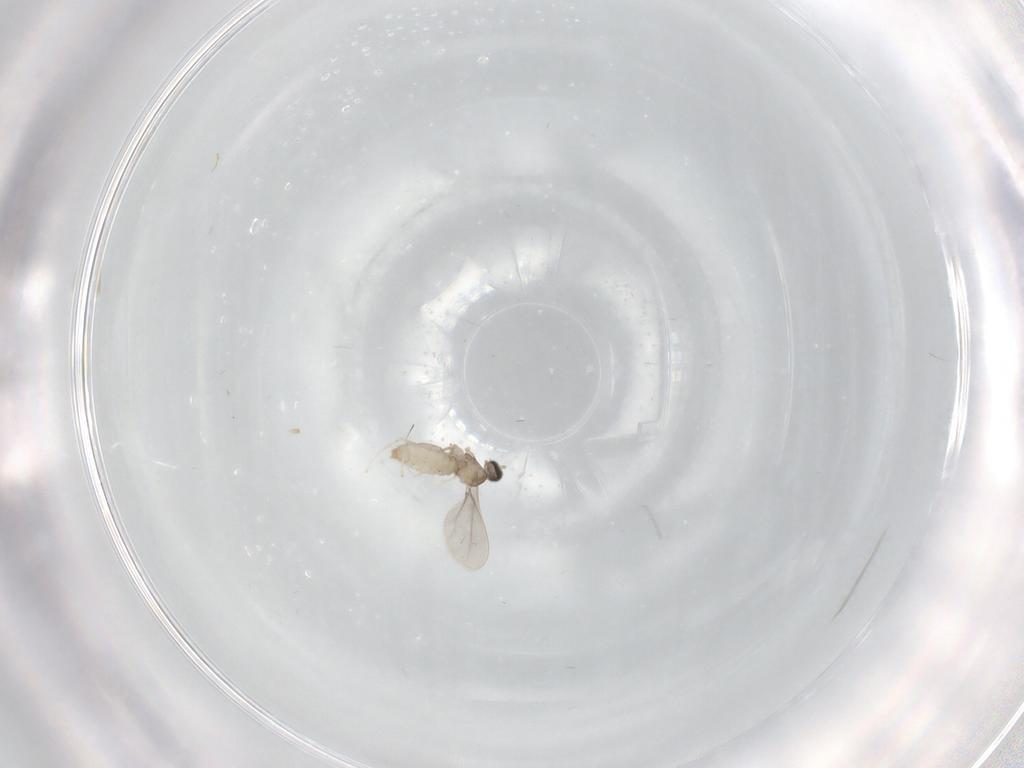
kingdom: Animalia
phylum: Arthropoda
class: Insecta
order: Diptera
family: Cecidomyiidae
